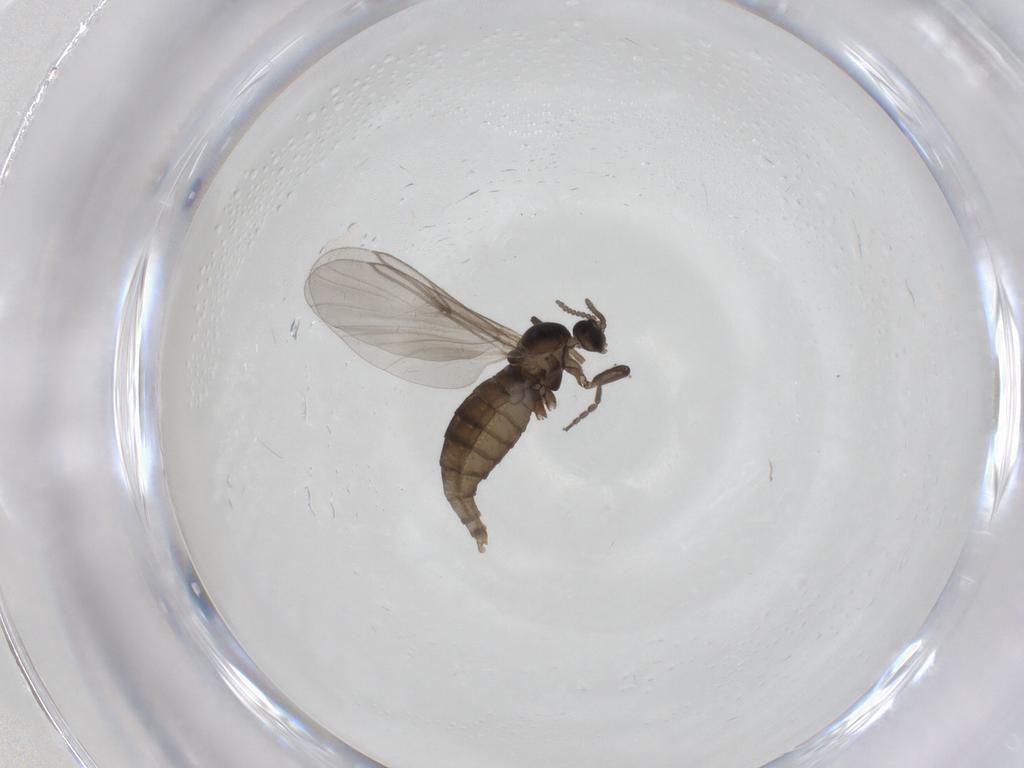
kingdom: Animalia
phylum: Arthropoda
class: Insecta
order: Diptera
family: Cecidomyiidae
